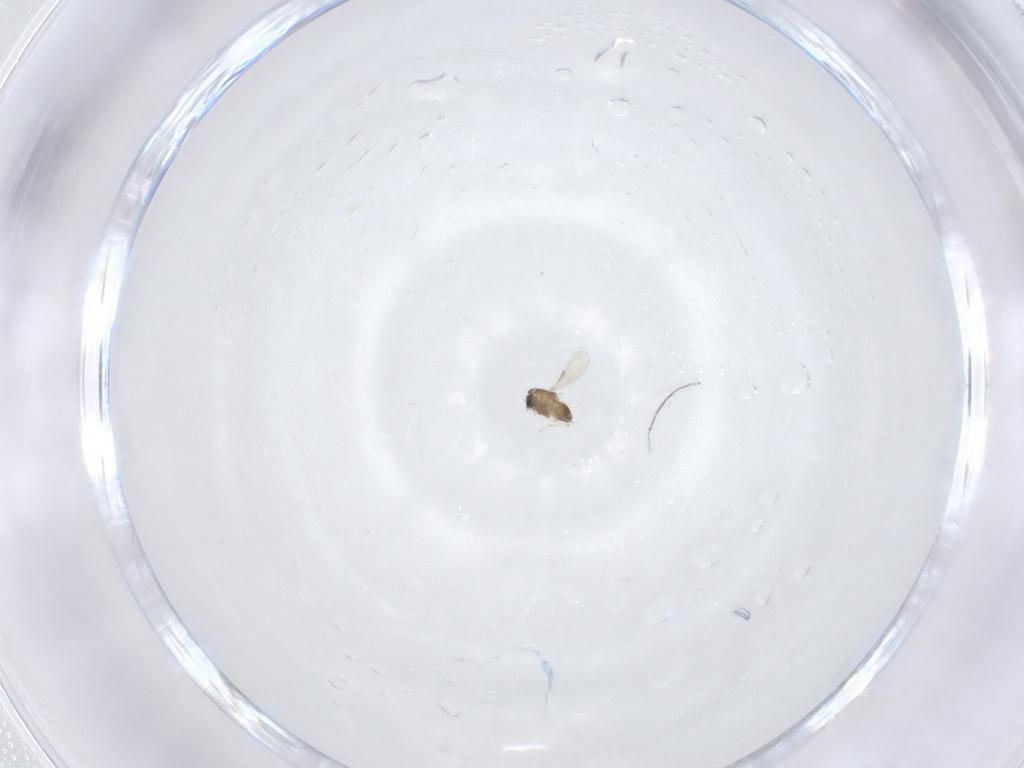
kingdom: Animalia
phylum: Arthropoda
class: Insecta
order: Diptera
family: Chironomidae
